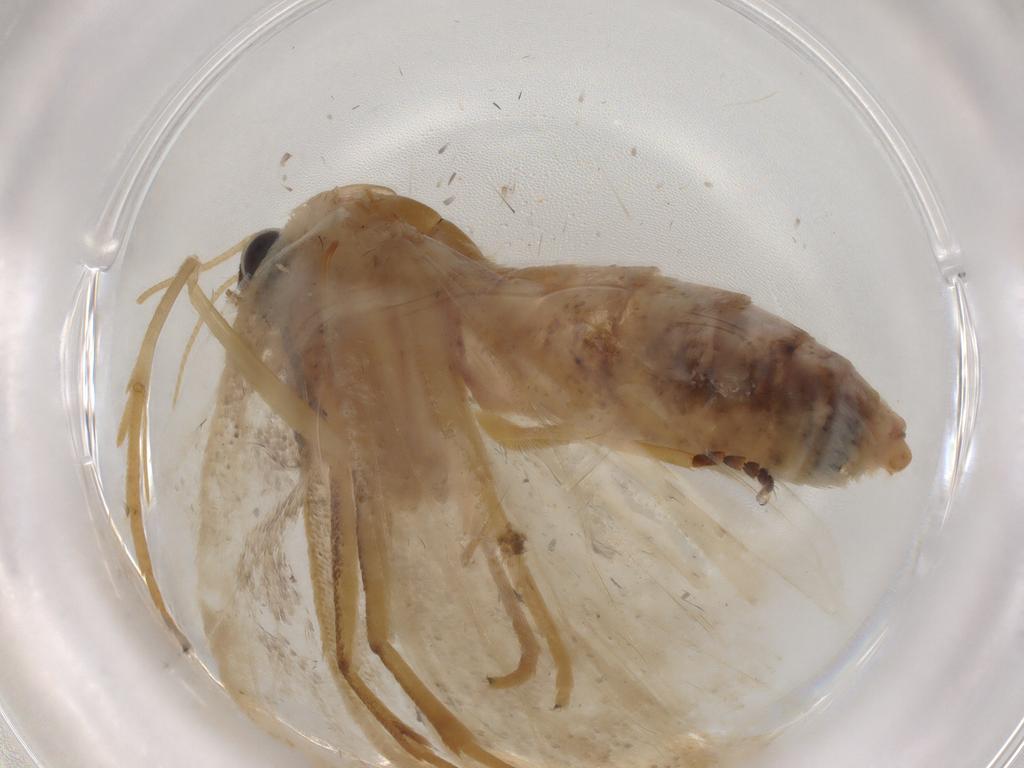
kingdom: Animalia
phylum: Arthropoda
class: Insecta
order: Lepidoptera
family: Geometridae
